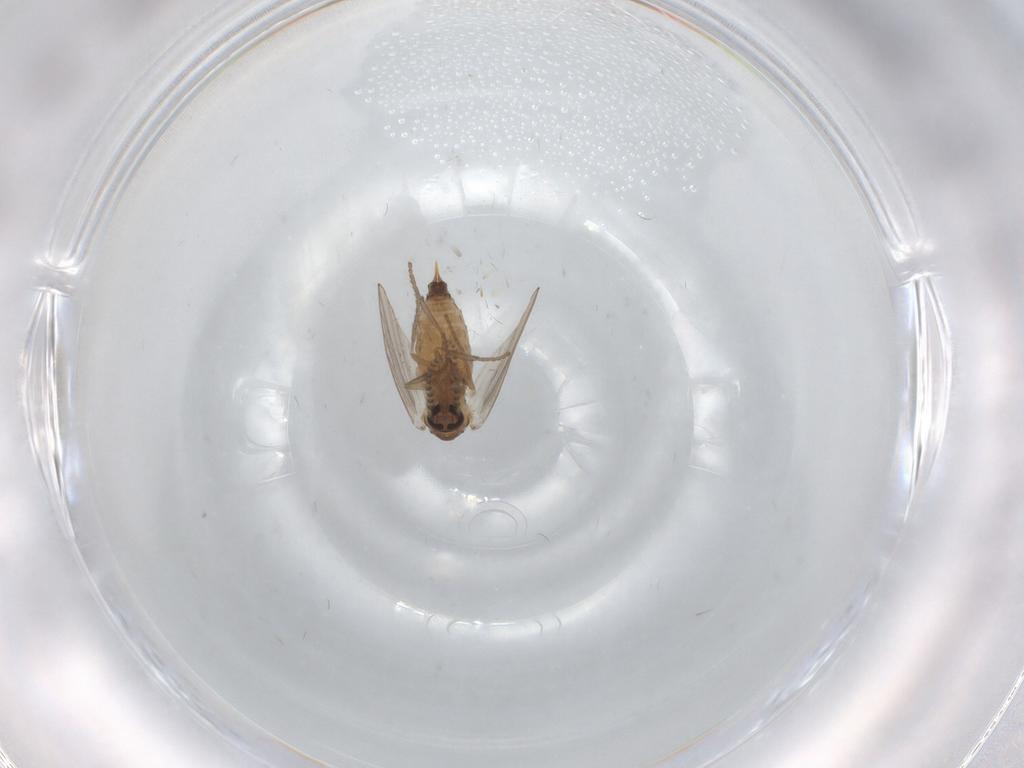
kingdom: Animalia
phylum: Arthropoda
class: Insecta
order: Diptera
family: Psychodidae
